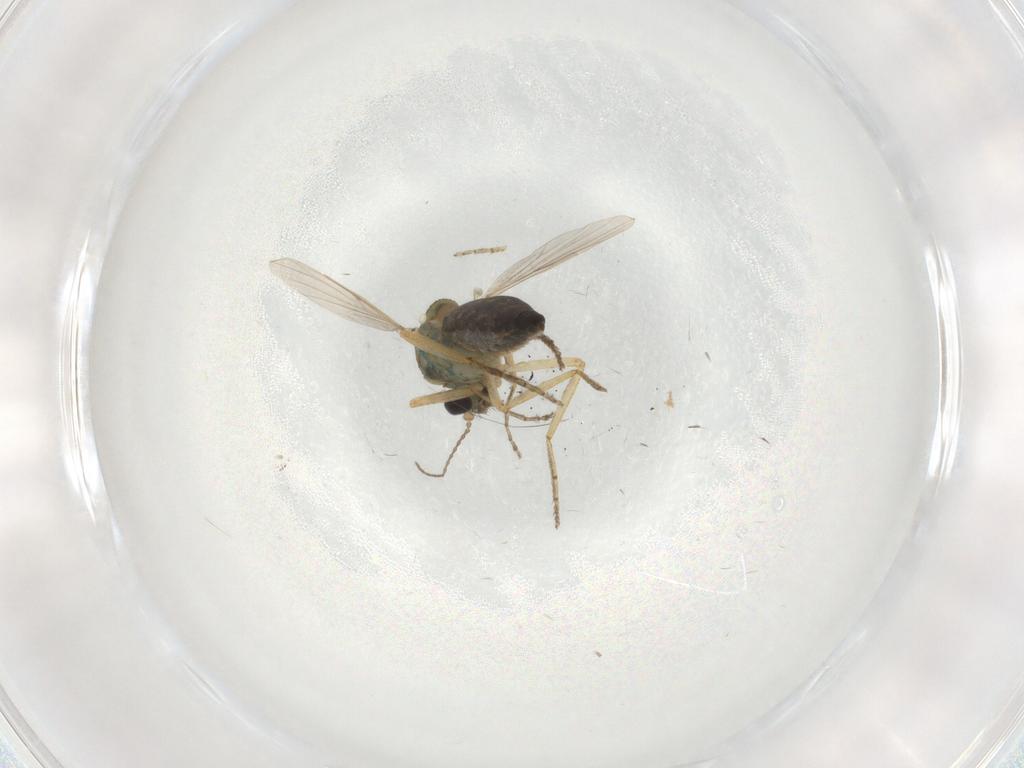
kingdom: Animalia
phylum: Arthropoda
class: Insecta
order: Diptera
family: Ceratopogonidae
